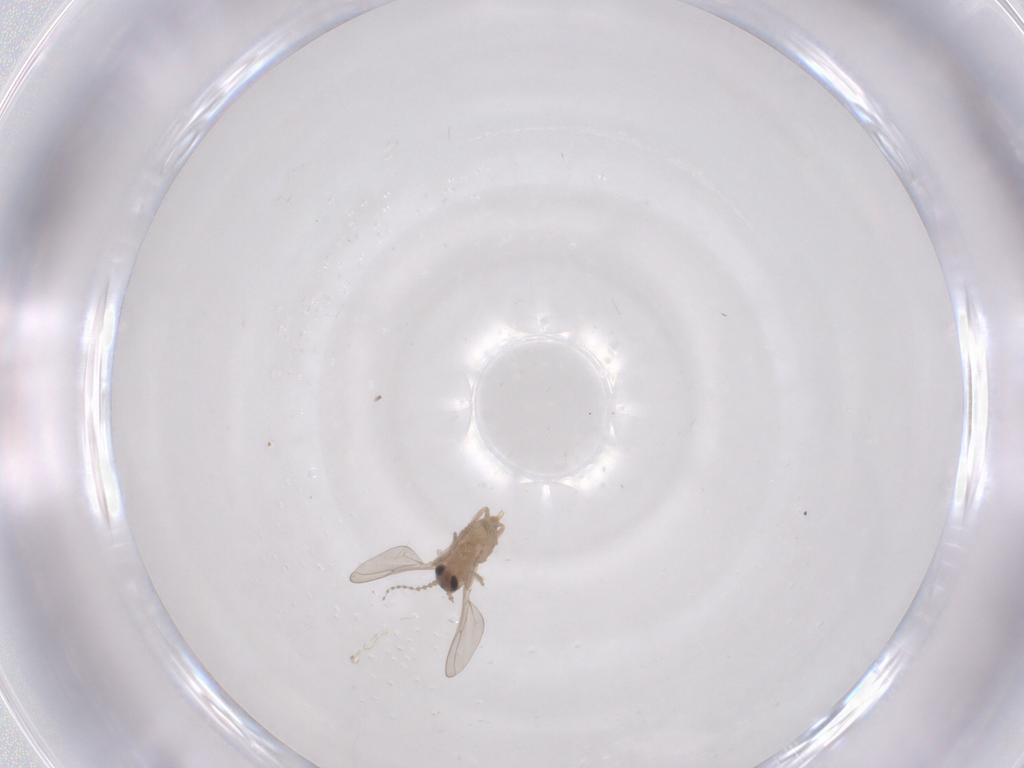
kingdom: Animalia
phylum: Arthropoda
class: Insecta
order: Diptera
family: Cecidomyiidae
